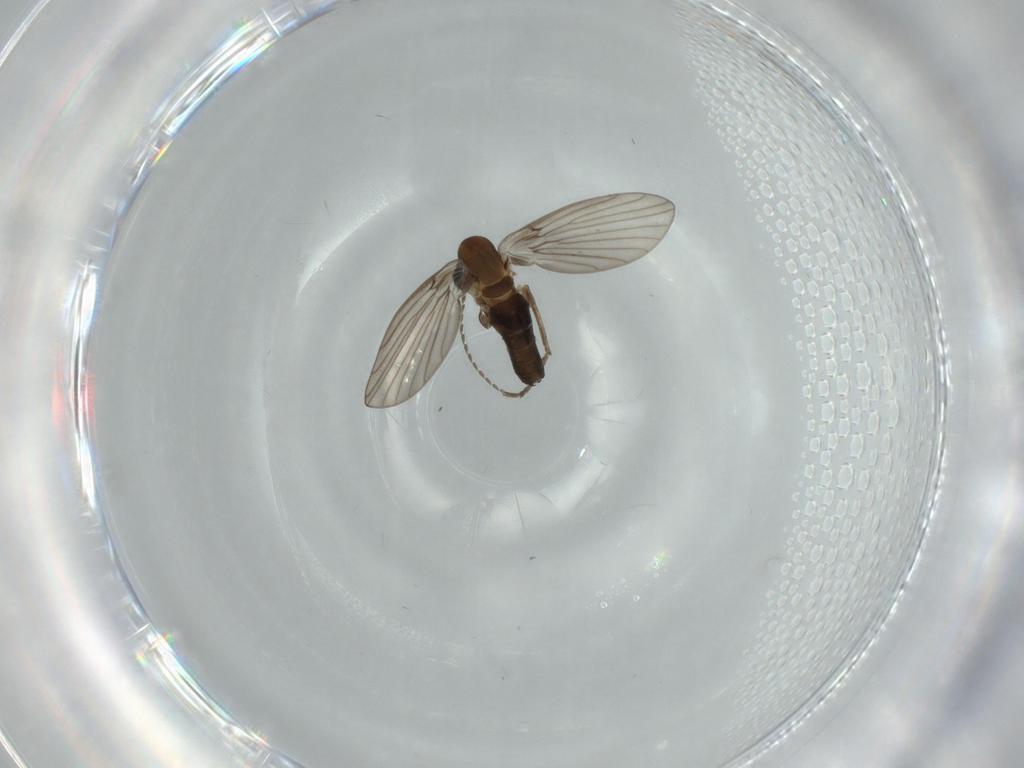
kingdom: Animalia
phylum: Arthropoda
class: Insecta
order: Diptera
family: Psychodidae
